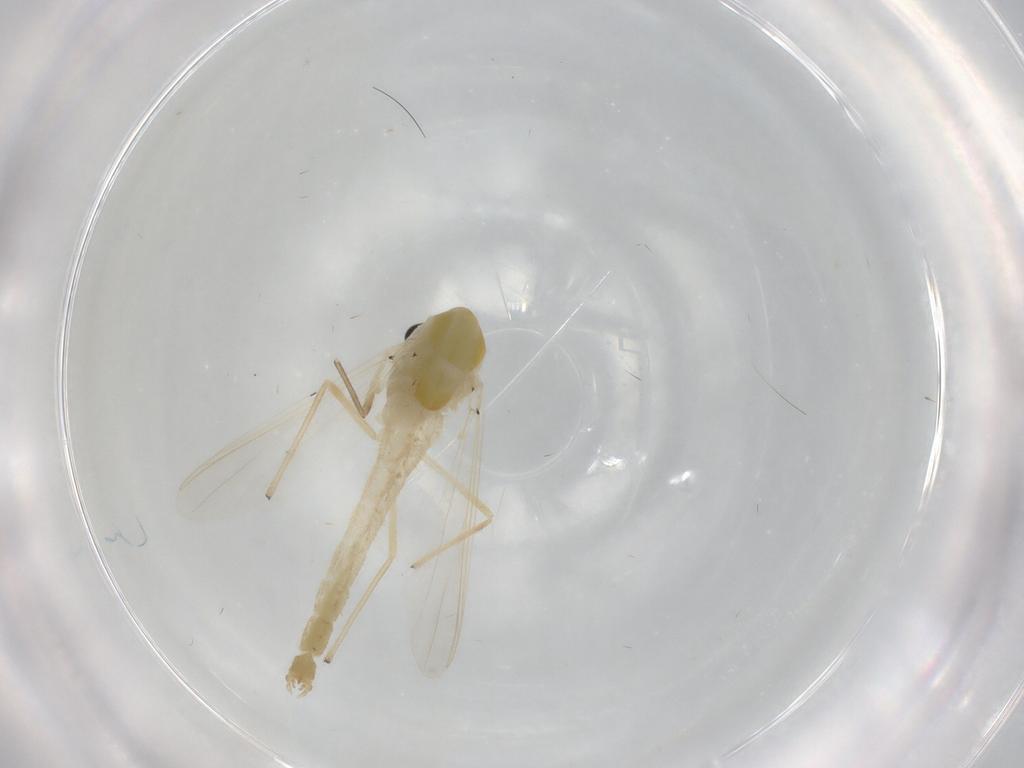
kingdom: Animalia
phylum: Arthropoda
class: Insecta
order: Diptera
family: Chironomidae
